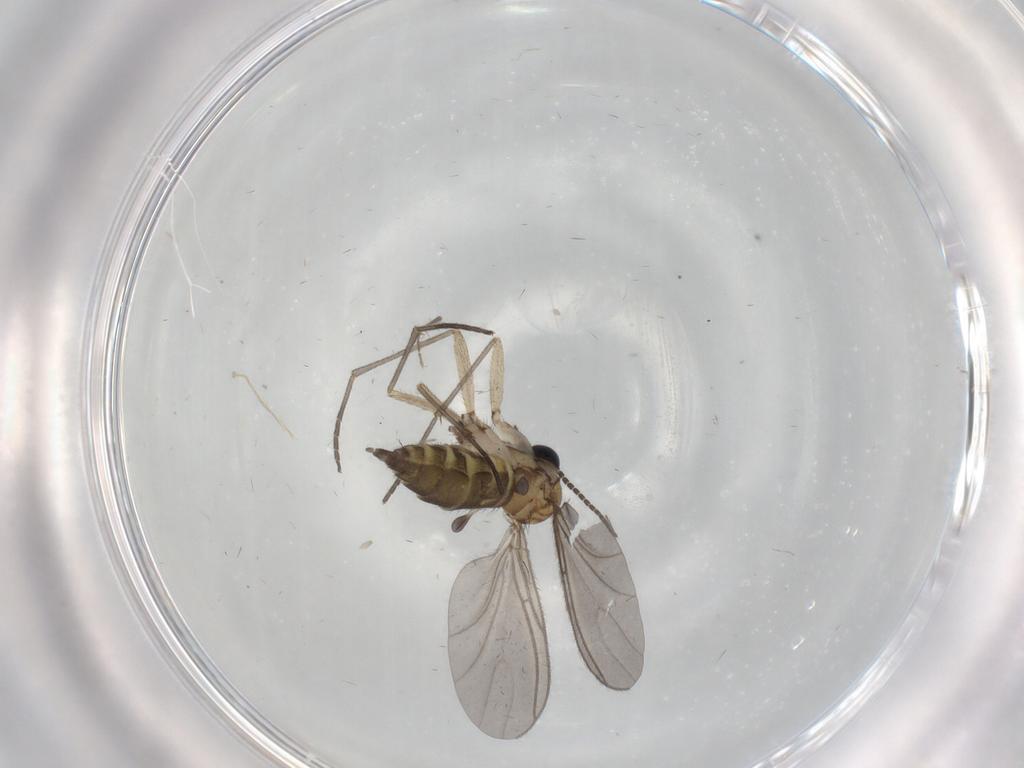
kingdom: Animalia
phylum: Arthropoda
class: Insecta
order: Diptera
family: Sciaridae
